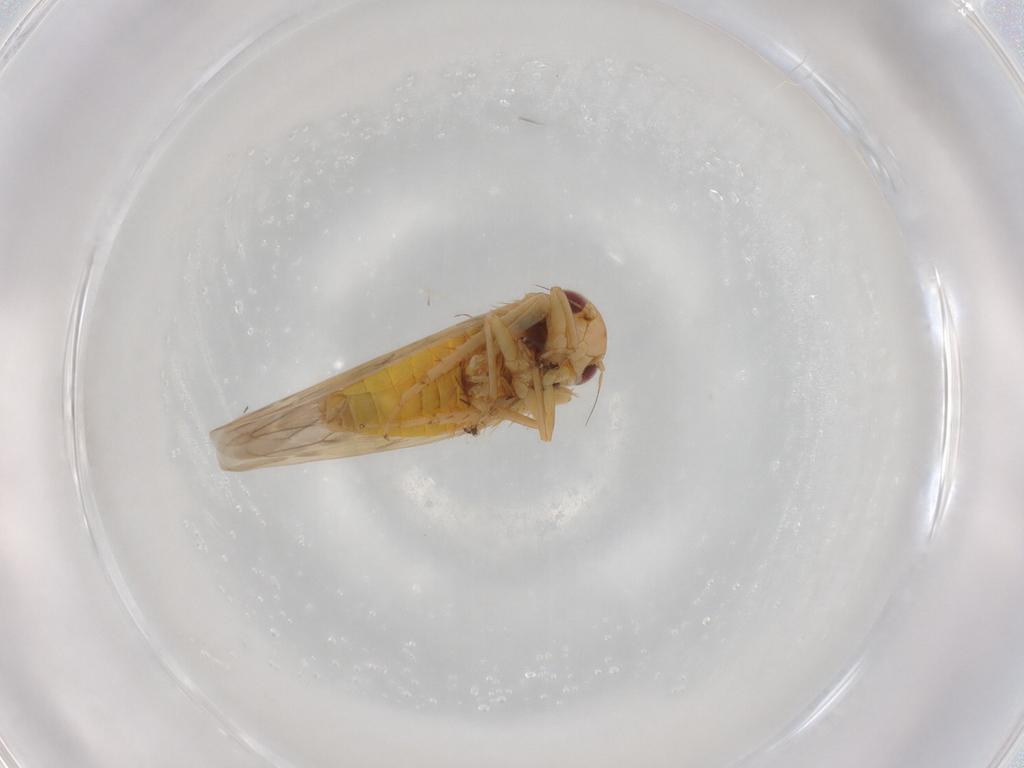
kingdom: Animalia
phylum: Arthropoda
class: Insecta
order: Hemiptera
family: Cicadellidae
